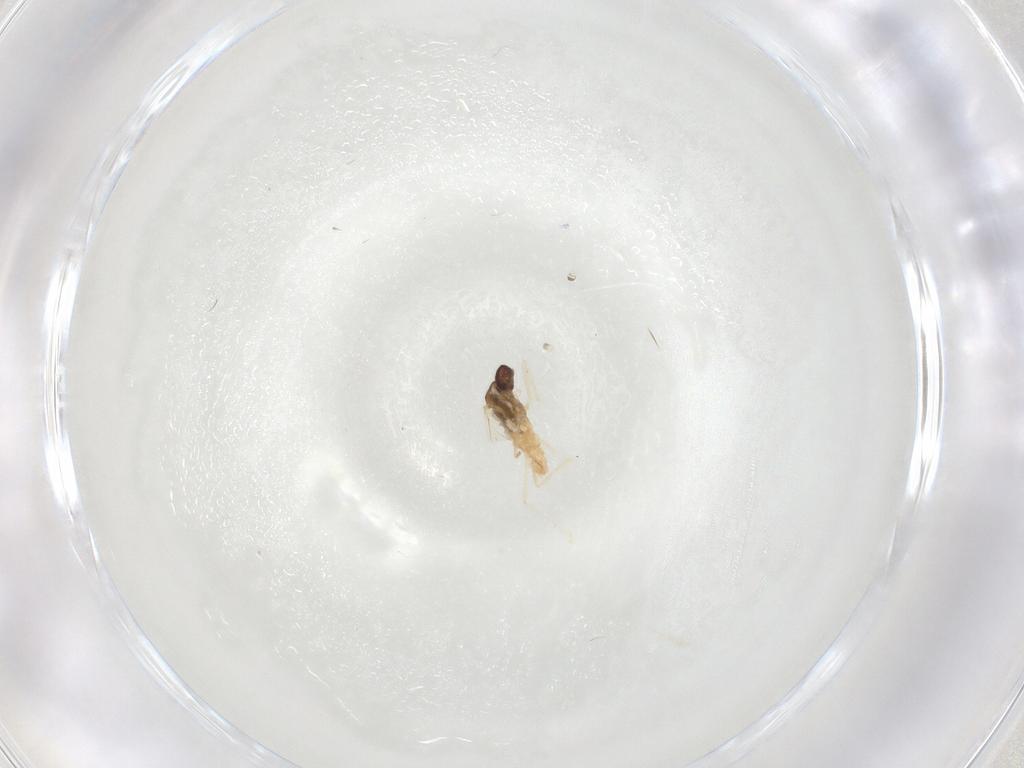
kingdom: Animalia
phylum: Arthropoda
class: Insecta
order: Diptera
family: Cecidomyiidae
